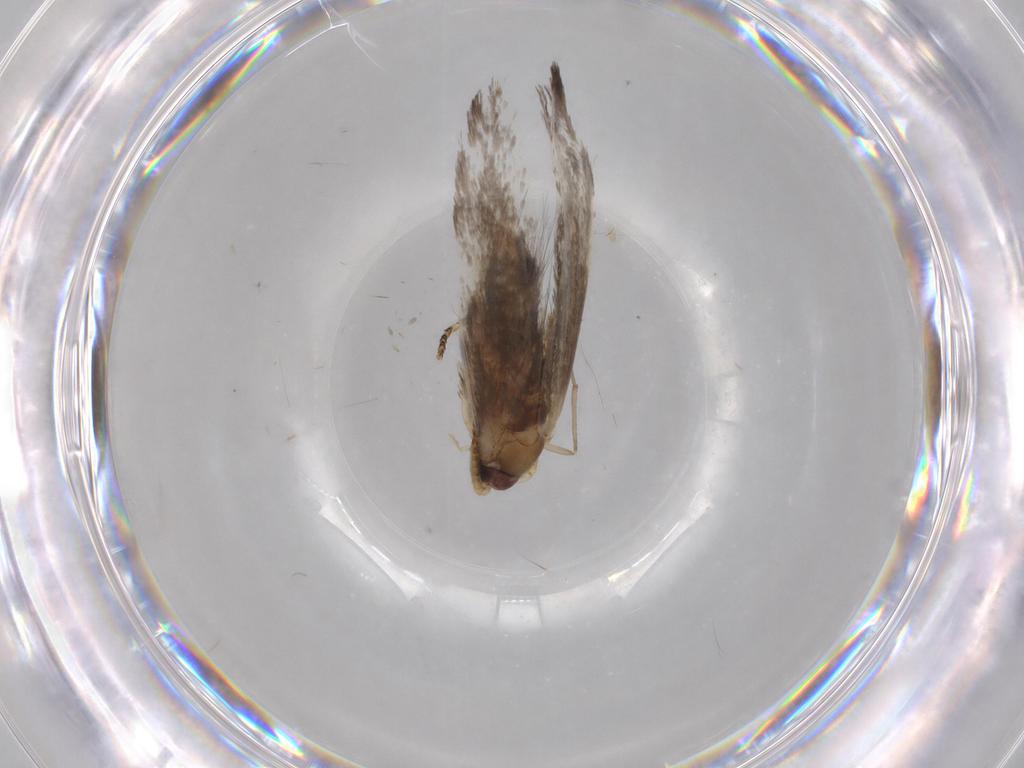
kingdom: Animalia
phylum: Arthropoda
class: Insecta
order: Lepidoptera
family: Tineidae
